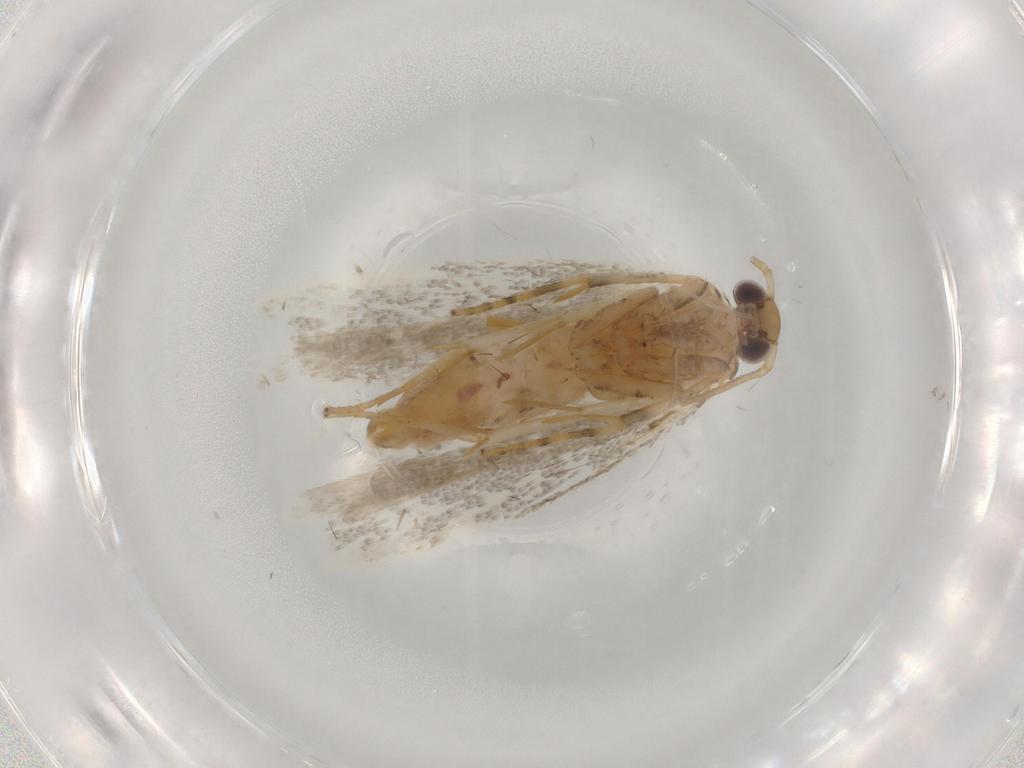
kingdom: Animalia
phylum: Arthropoda
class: Insecta
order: Lepidoptera
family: Gelechiidae
